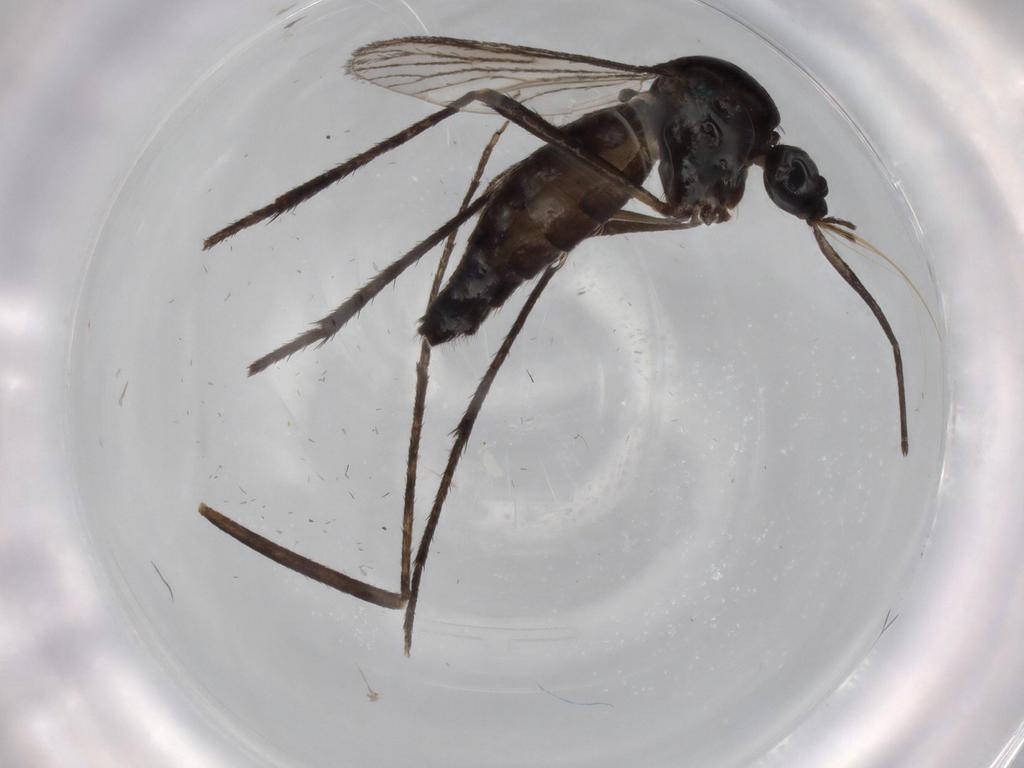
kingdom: Animalia
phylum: Arthropoda
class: Insecta
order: Diptera
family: Cecidomyiidae
